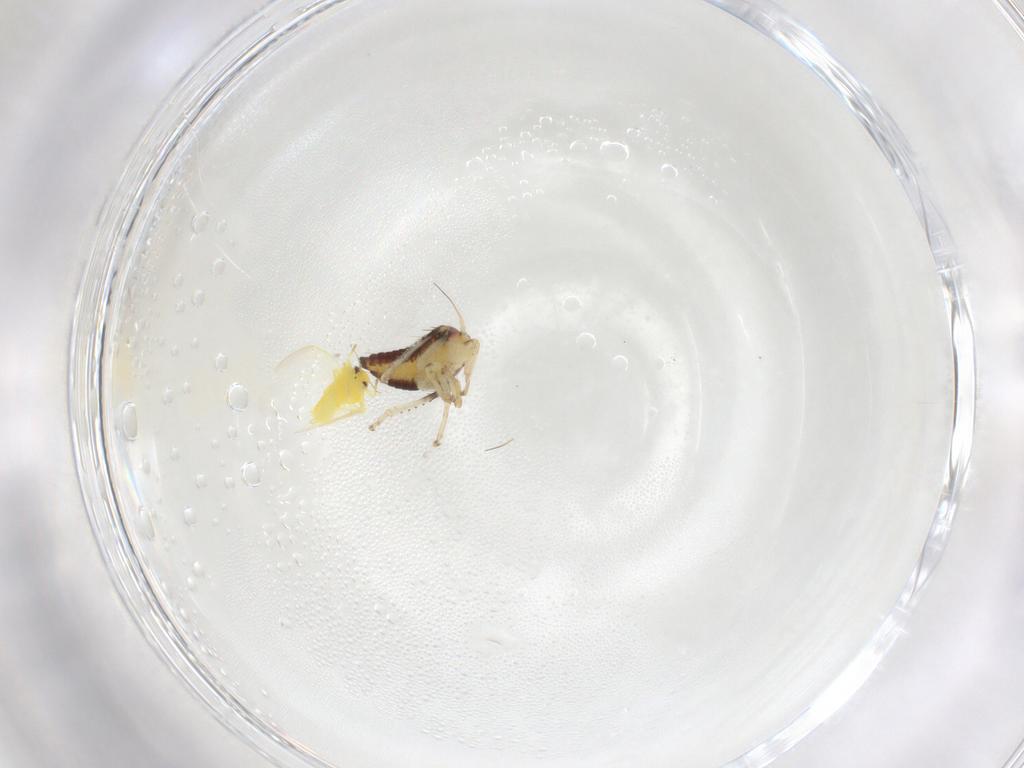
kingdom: Animalia
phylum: Arthropoda
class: Insecta
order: Hemiptera
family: Cicadellidae
